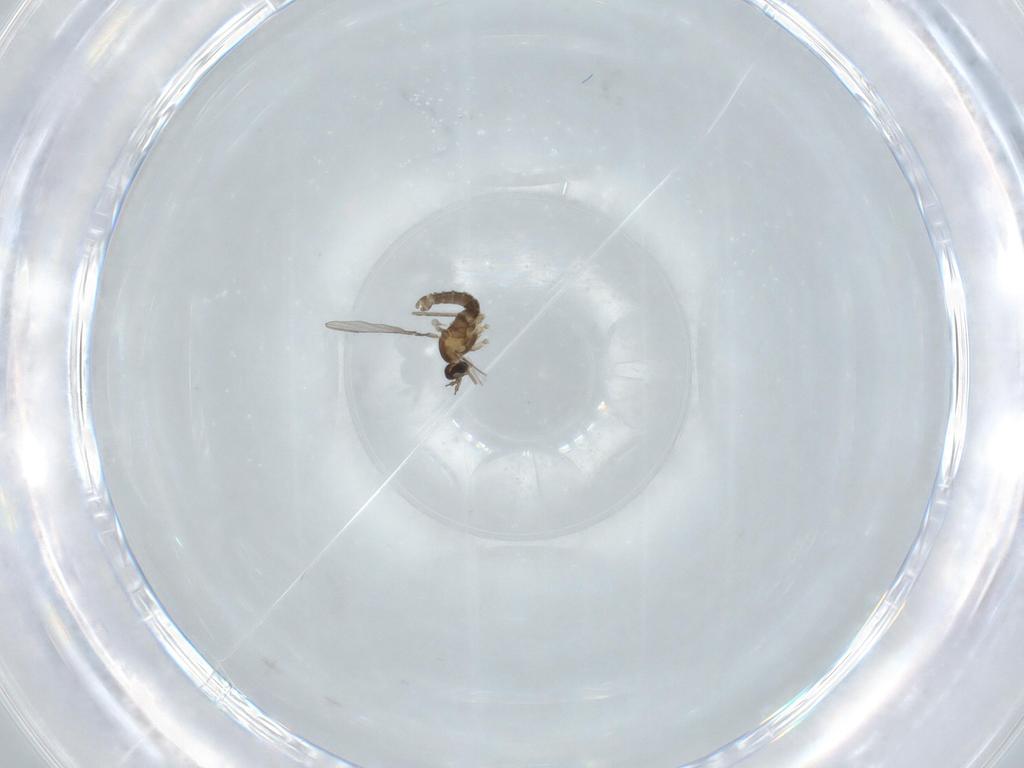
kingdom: Animalia
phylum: Arthropoda
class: Insecta
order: Diptera
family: Cecidomyiidae
